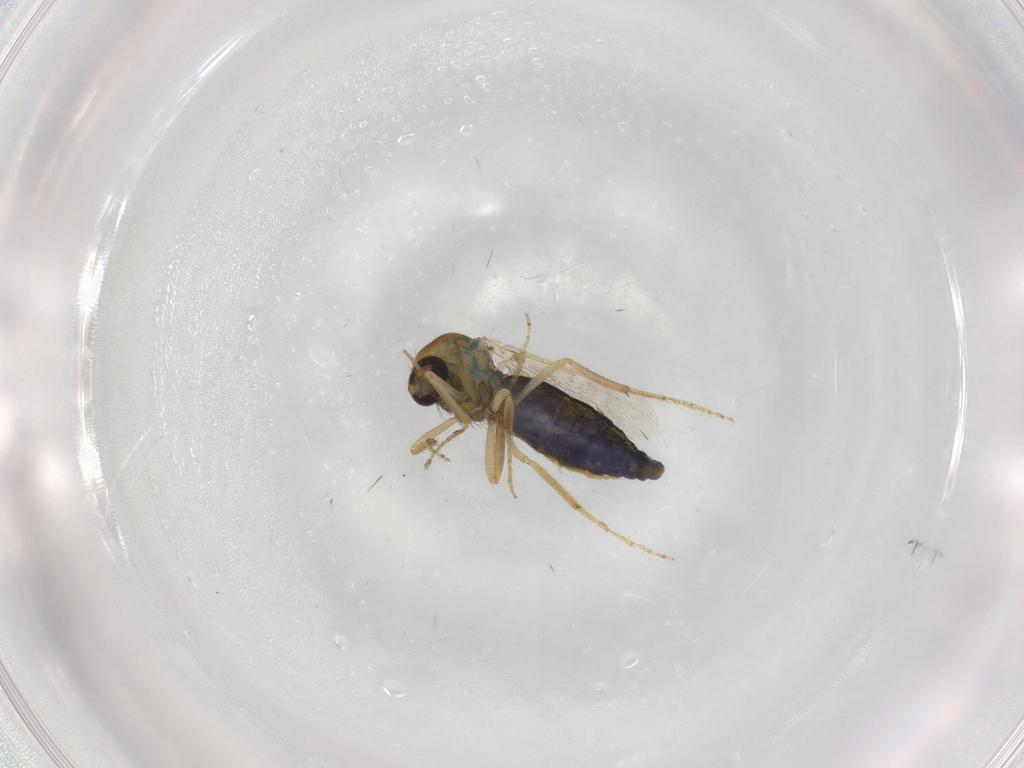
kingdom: Animalia
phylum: Arthropoda
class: Insecta
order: Diptera
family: Ceratopogonidae
